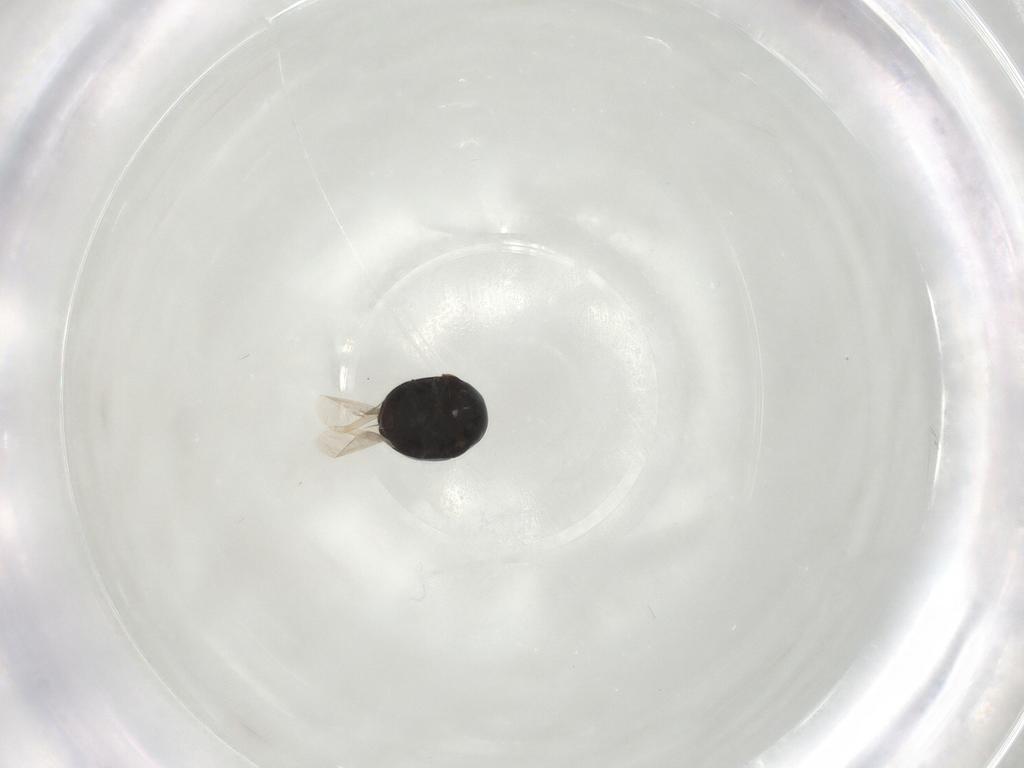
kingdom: Animalia
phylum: Arthropoda
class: Insecta
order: Coleoptera
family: Cybocephalidae
